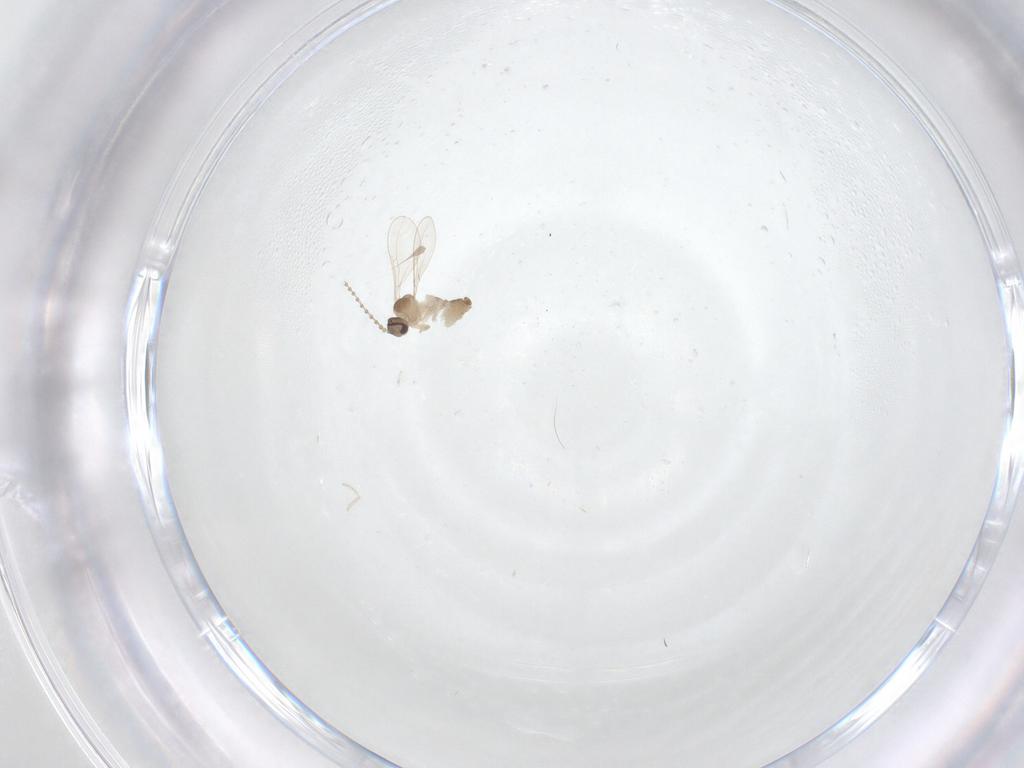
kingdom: Animalia
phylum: Arthropoda
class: Insecta
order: Diptera
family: Cecidomyiidae
